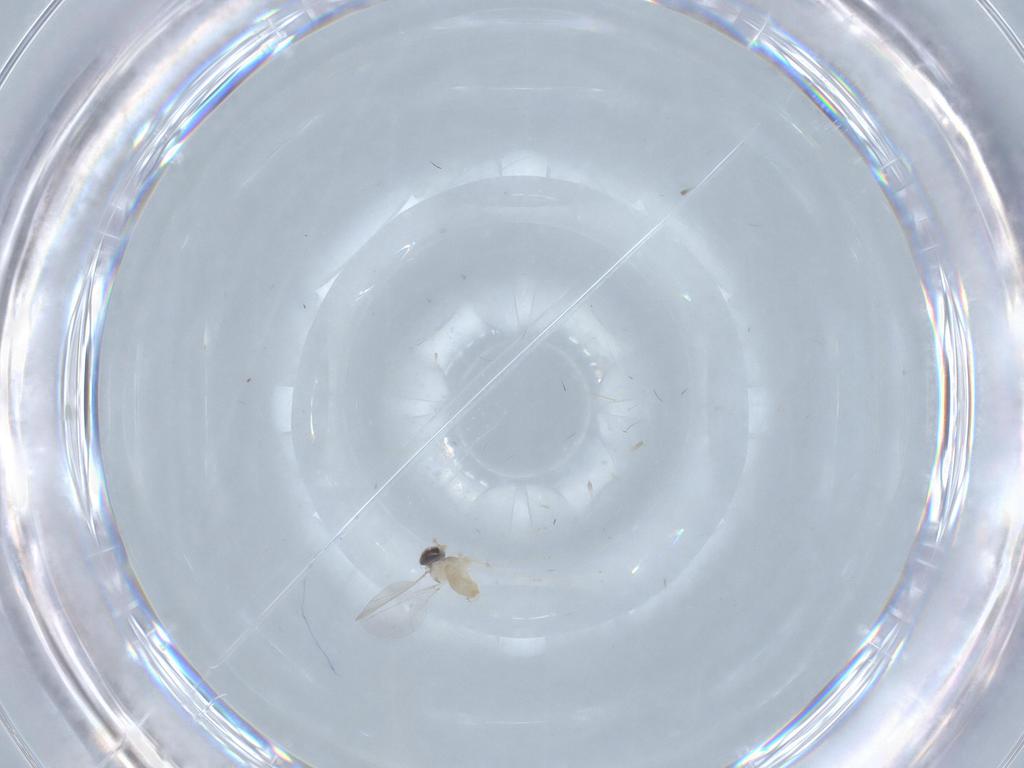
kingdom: Animalia
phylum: Arthropoda
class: Insecta
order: Diptera
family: Cecidomyiidae
